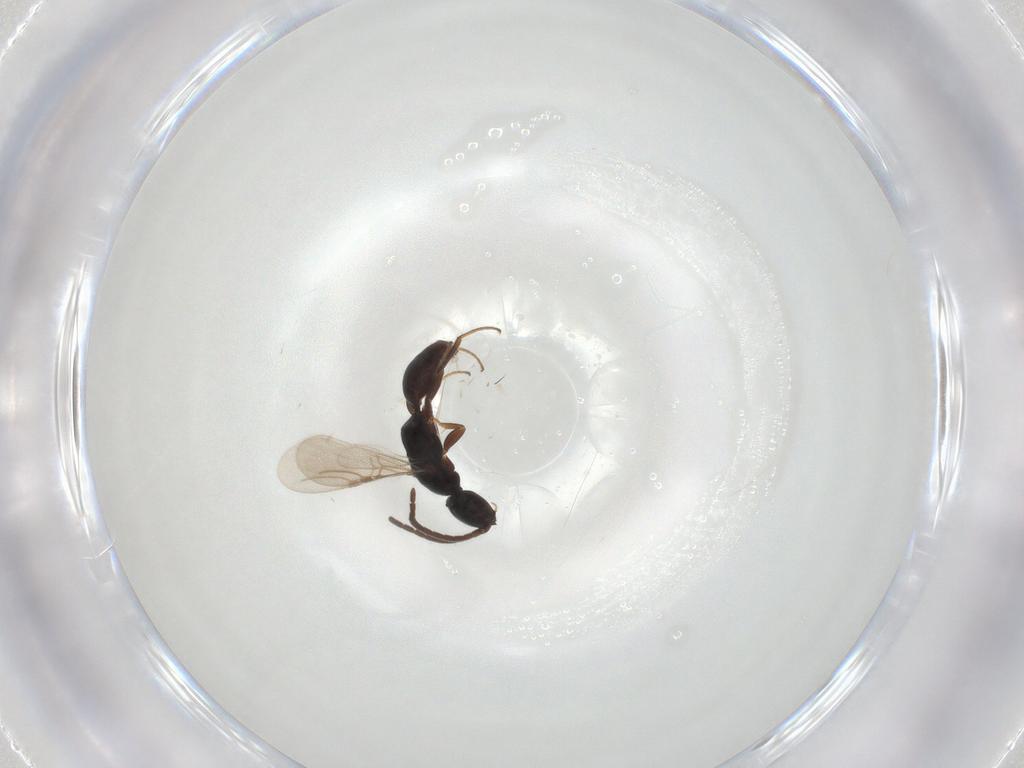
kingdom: Animalia
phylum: Arthropoda
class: Insecta
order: Hymenoptera
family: Bethylidae
